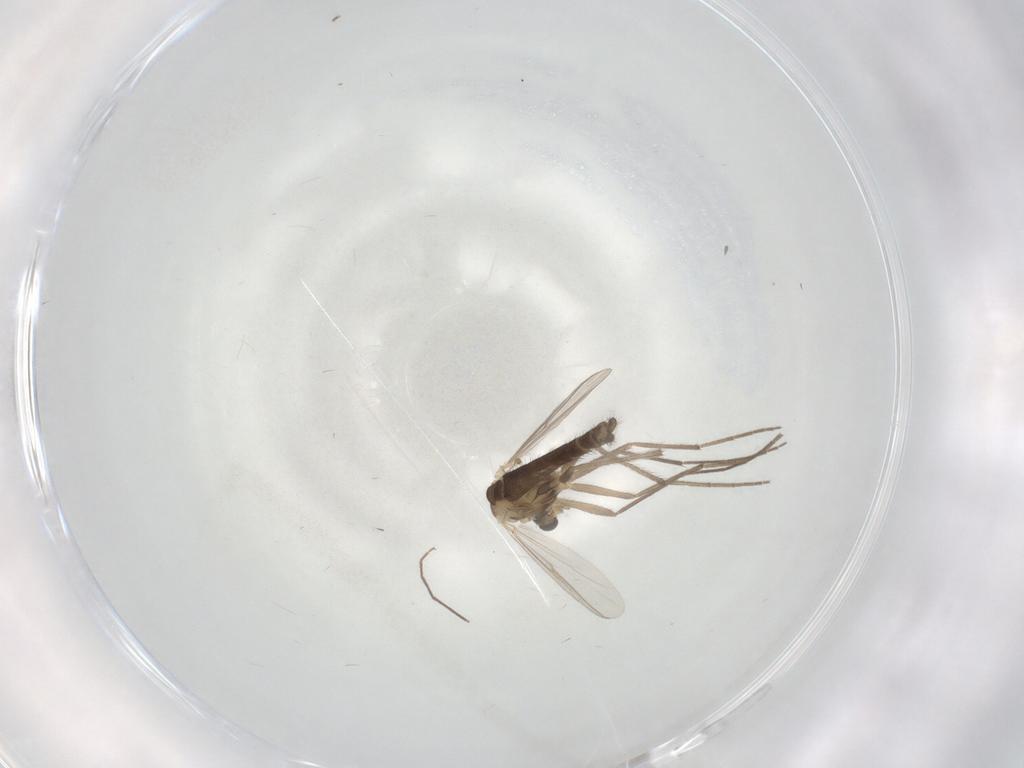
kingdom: Animalia
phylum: Arthropoda
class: Insecta
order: Diptera
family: Chironomidae
